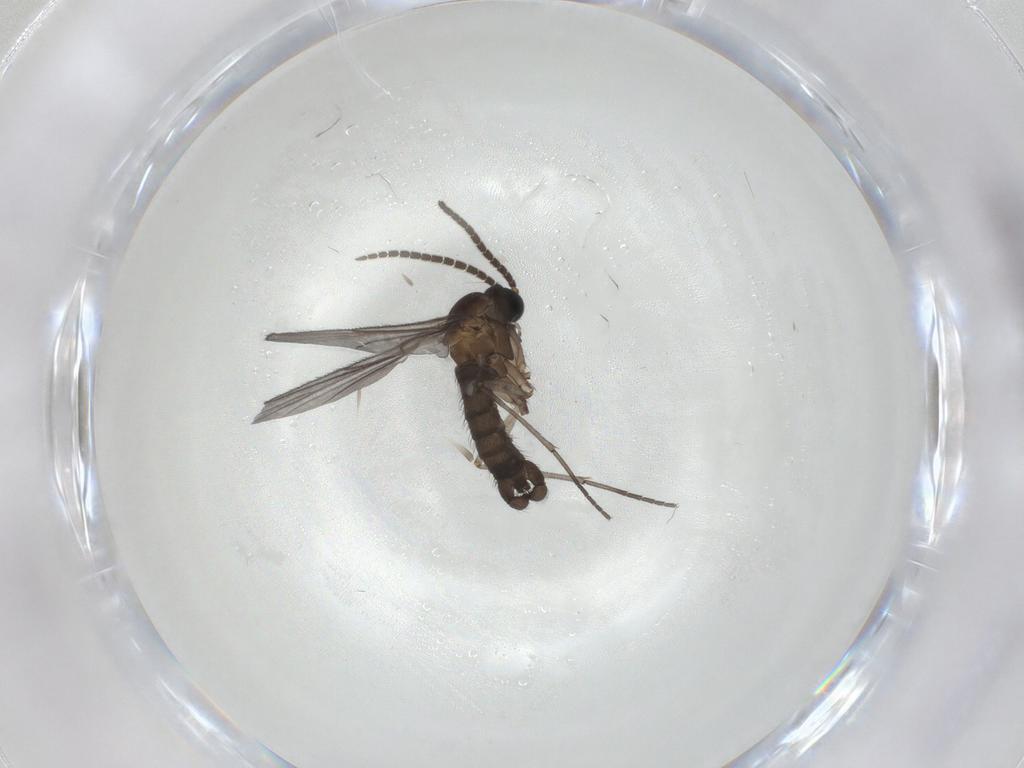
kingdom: Animalia
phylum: Arthropoda
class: Insecta
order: Diptera
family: Sciaridae
